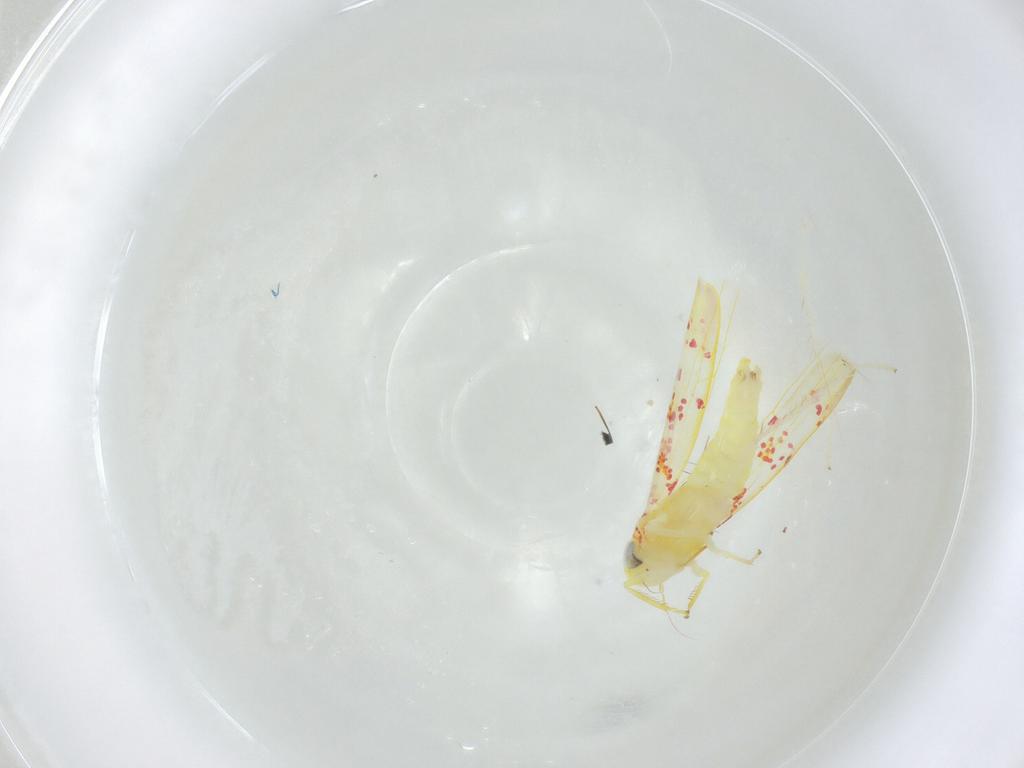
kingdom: Animalia
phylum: Arthropoda
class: Insecta
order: Hemiptera
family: Cicadellidae
